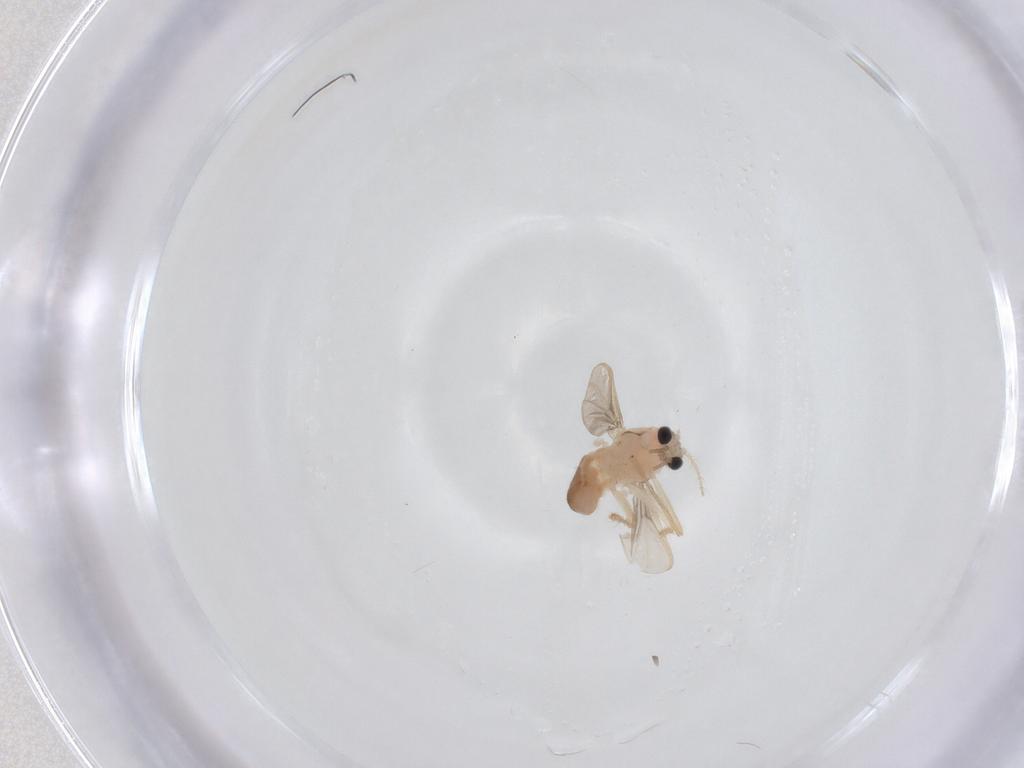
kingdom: Animalia
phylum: Arthropoda
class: Insecta
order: Diptera
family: Chironomidae
